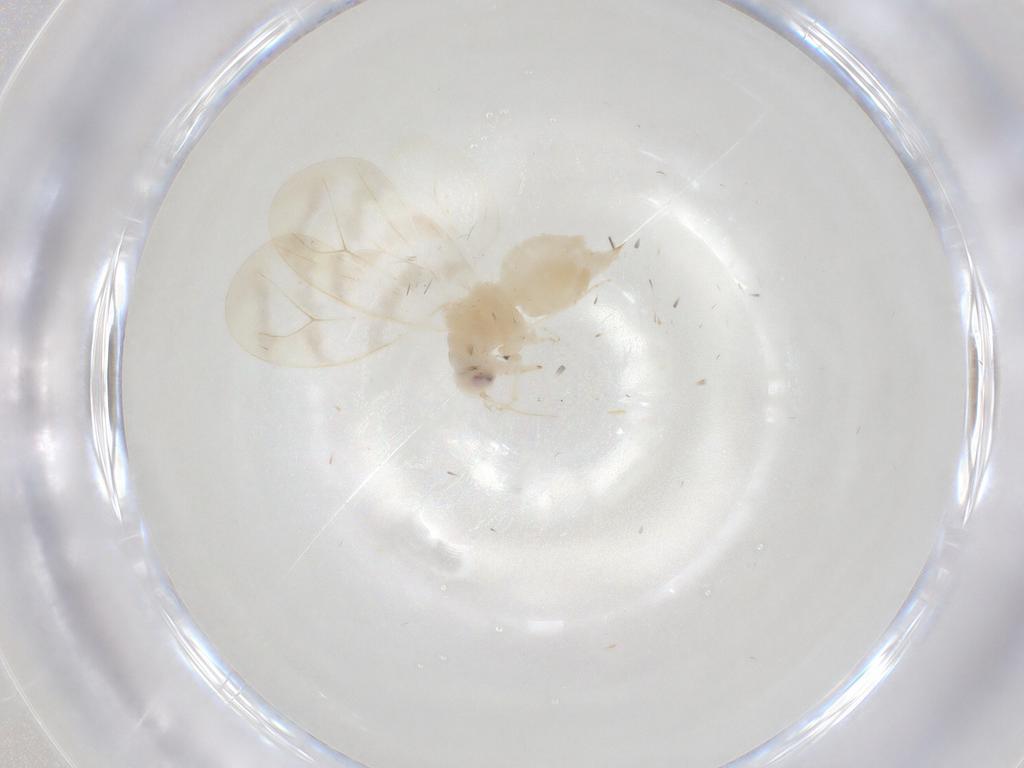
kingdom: Animalia
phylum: Arthropoda
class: Insecta
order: Hemiptera
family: Aleyrodidae
